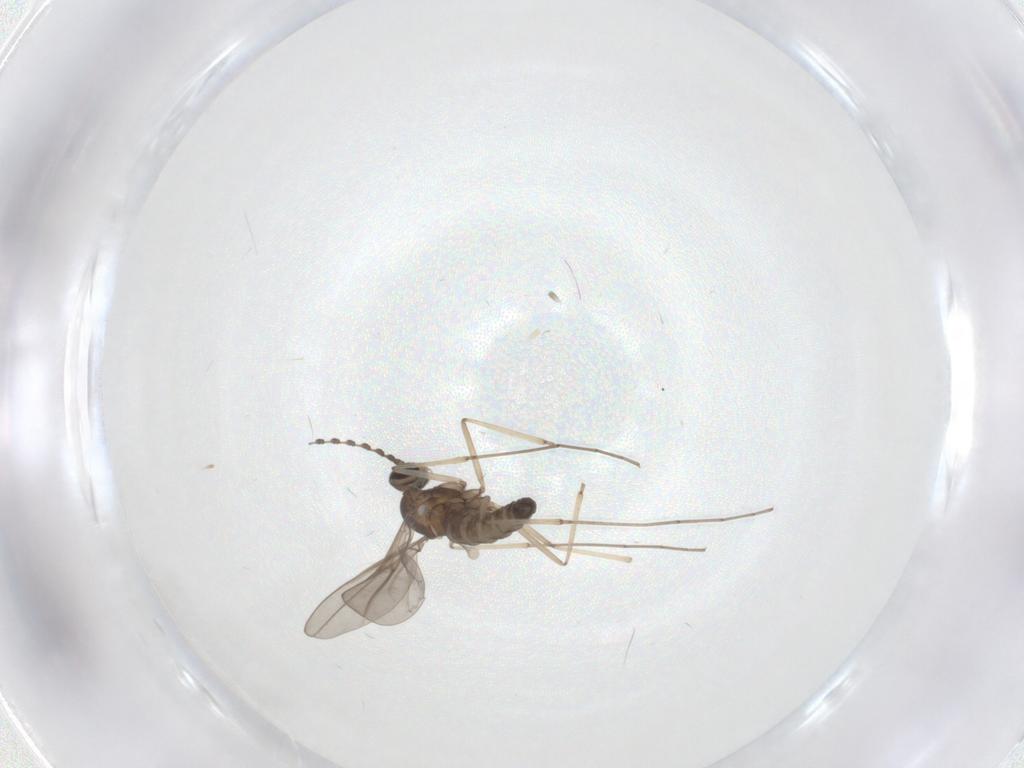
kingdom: Animalia
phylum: Arthropoda
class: Insecta
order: Diptera
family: Cecidomyiidae
